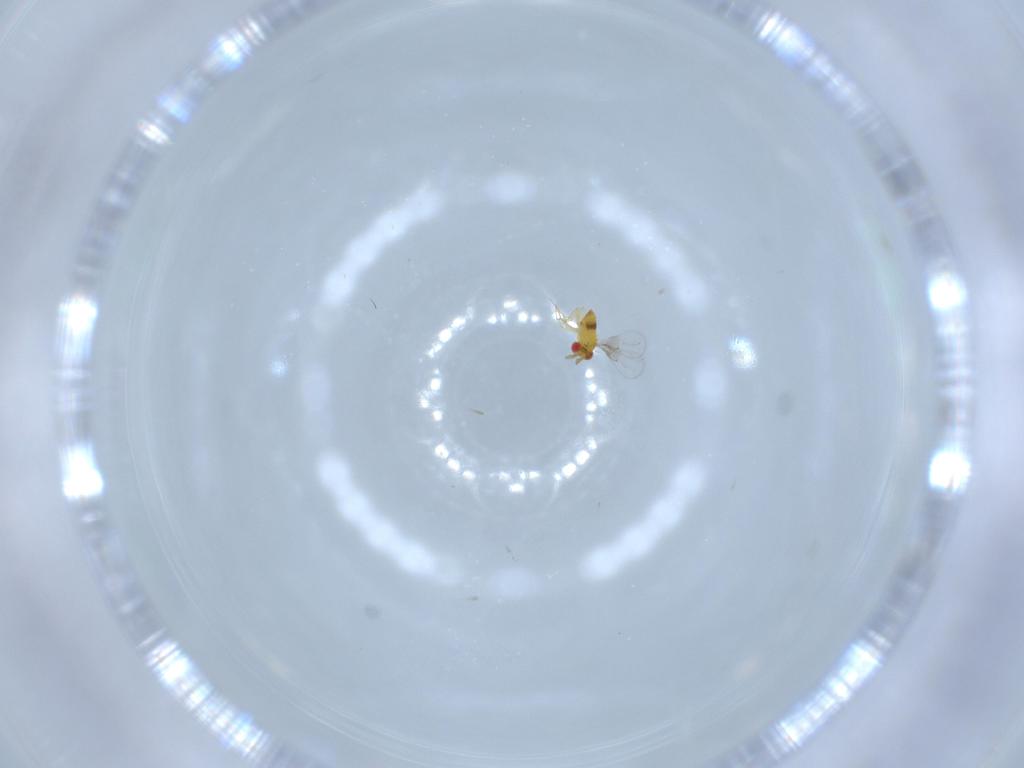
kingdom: Animalia
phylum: Arthropoda
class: Insecta
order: Hymenoptera
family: Trichogrammatidae
